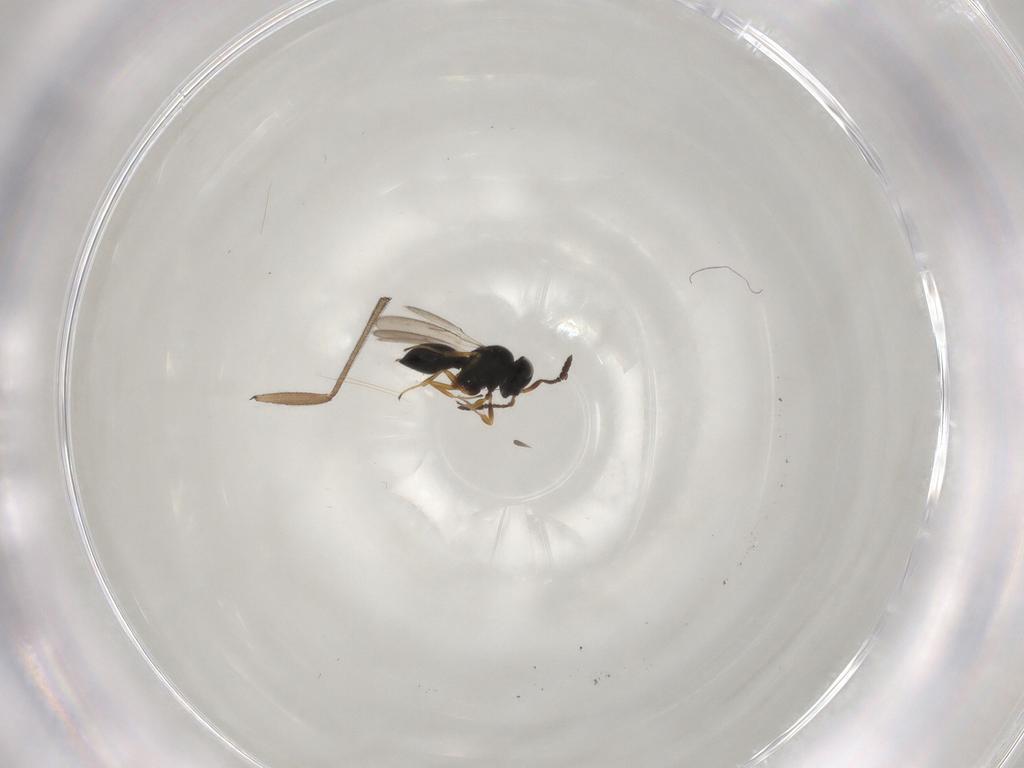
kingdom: Animalia
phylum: Arthropoda
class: Insecta
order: Hymenoptera
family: Scelionidae
